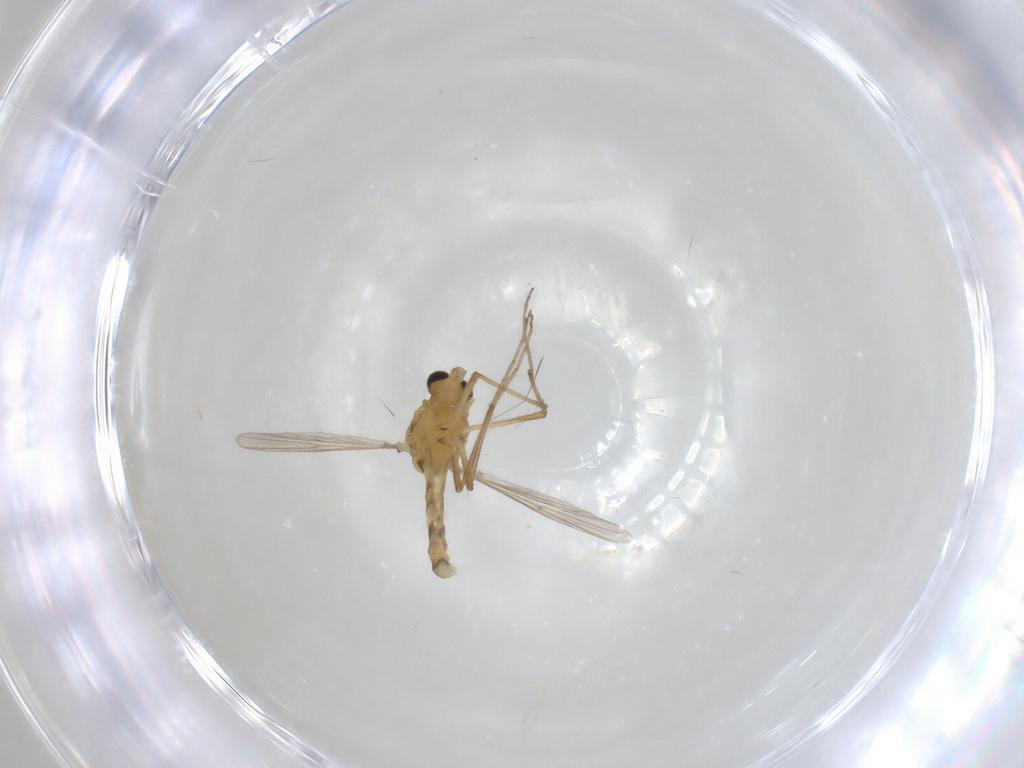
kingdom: Animalia
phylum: Arthropoda
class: Insecta
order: Diptera
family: Chironomidae
